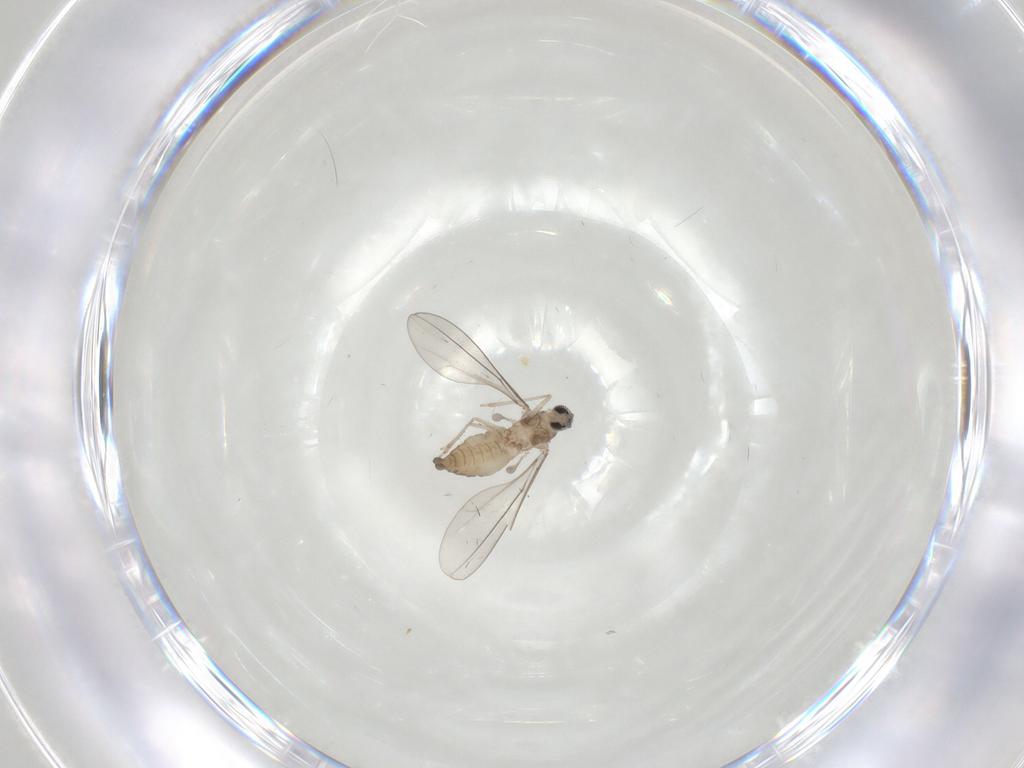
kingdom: Animalia
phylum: Arthropoda
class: Insecta
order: Diptera
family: Cecidomyiidae
